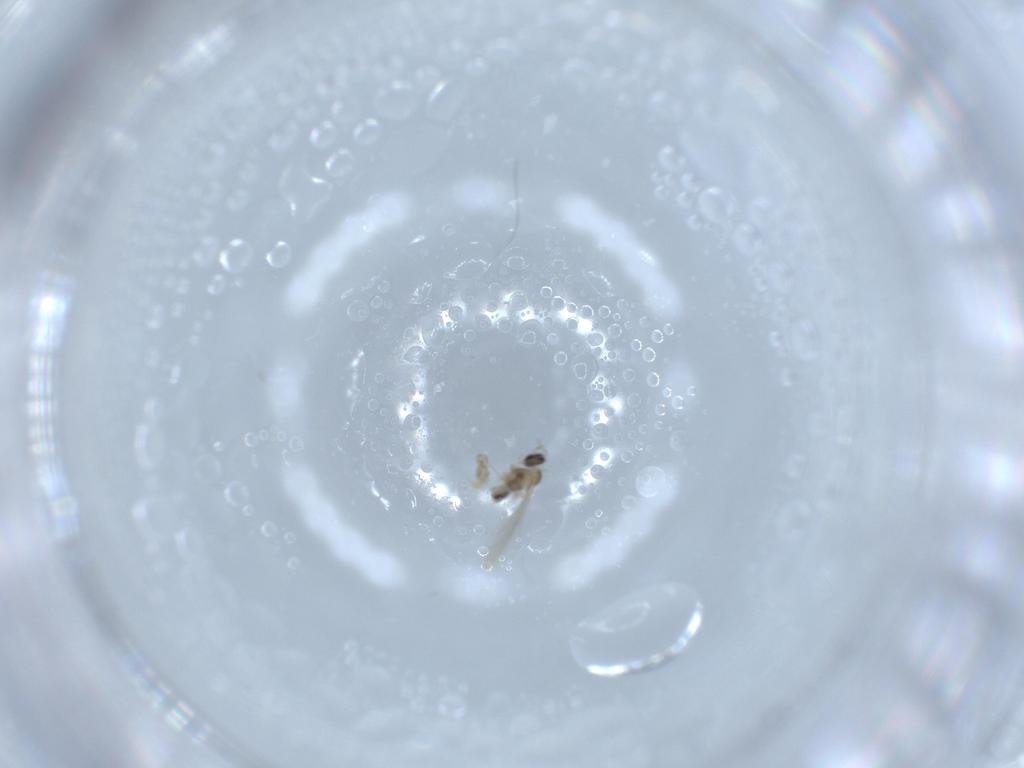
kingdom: Animalia
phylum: Arthropoda
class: Insecta
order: Diptera
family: Cecidomyiidae
